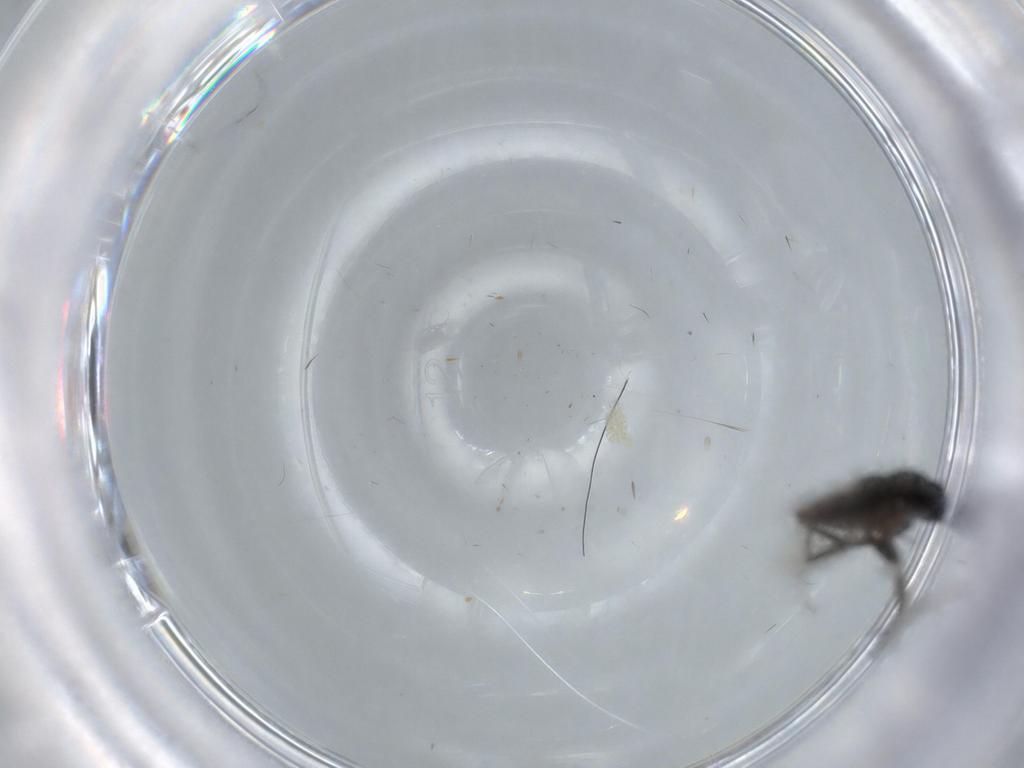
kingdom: Animalia
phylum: Arthropoda
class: Insecta
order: Diptera
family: Phoridae
